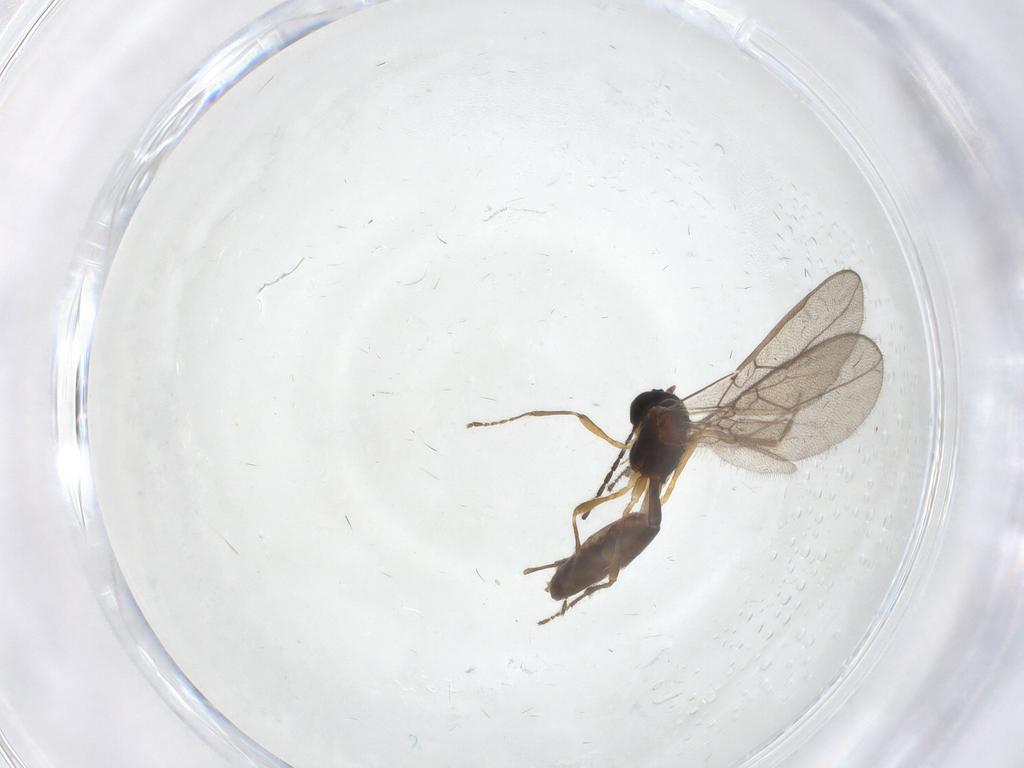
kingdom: Animalia
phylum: Arthropoda
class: Insecta
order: Hymenoptera
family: Braconidae
